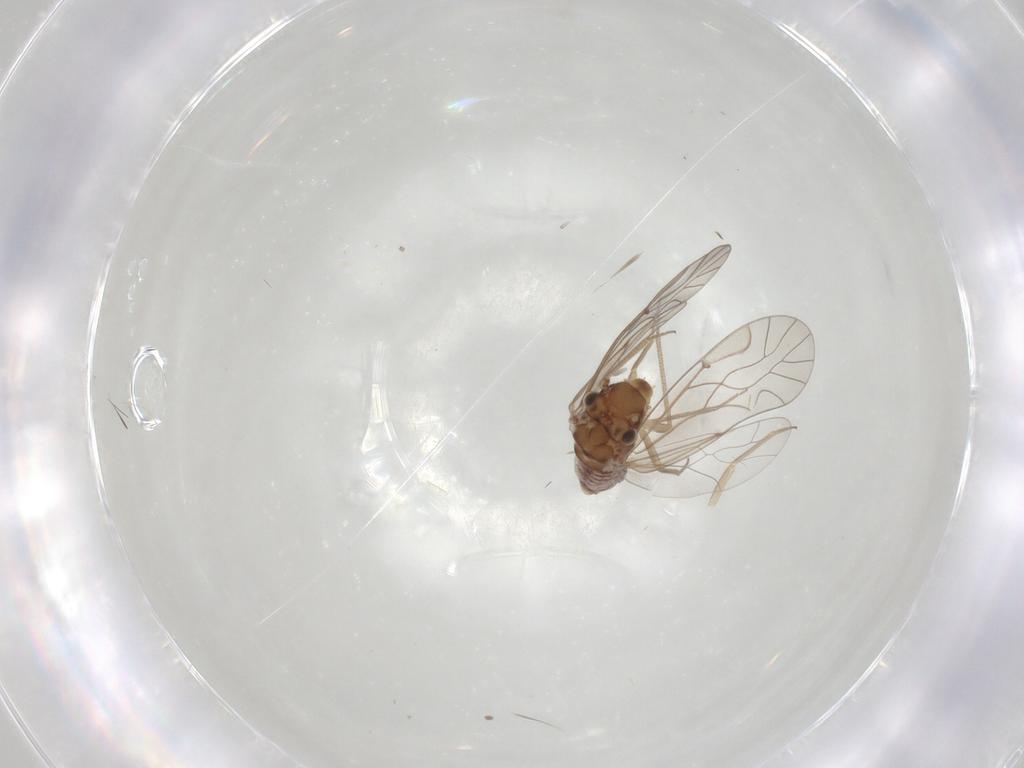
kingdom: Animalia
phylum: Arthropoda
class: Insecta
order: Psocodea
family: Lachesillidae
